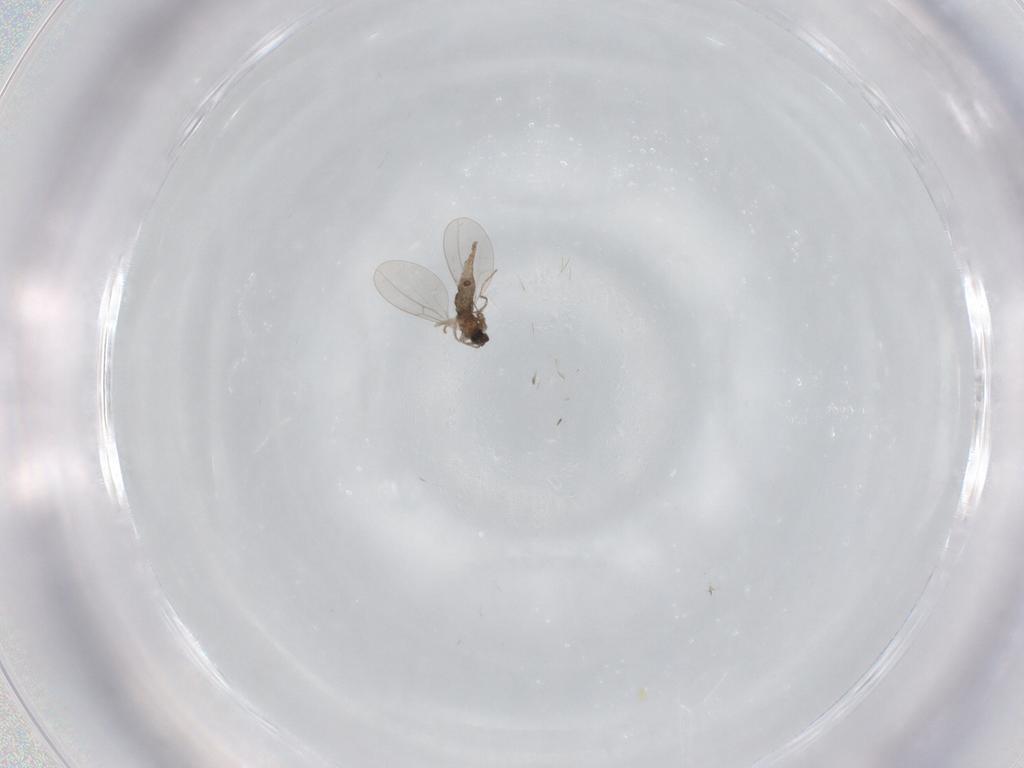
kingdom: Animalia
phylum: Arthropoda
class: Insecta
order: Diptera
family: Cecidomyiidae
